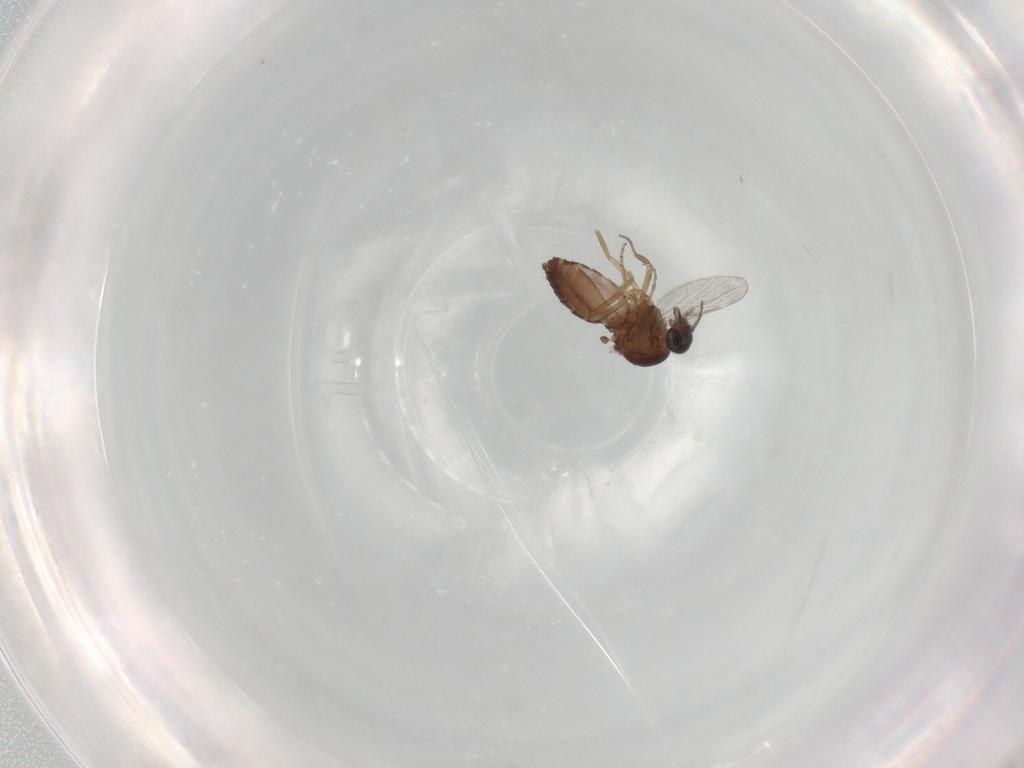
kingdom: Animalia
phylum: Arthropoda
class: Insecta
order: Diptera
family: Ceratopogonidae
